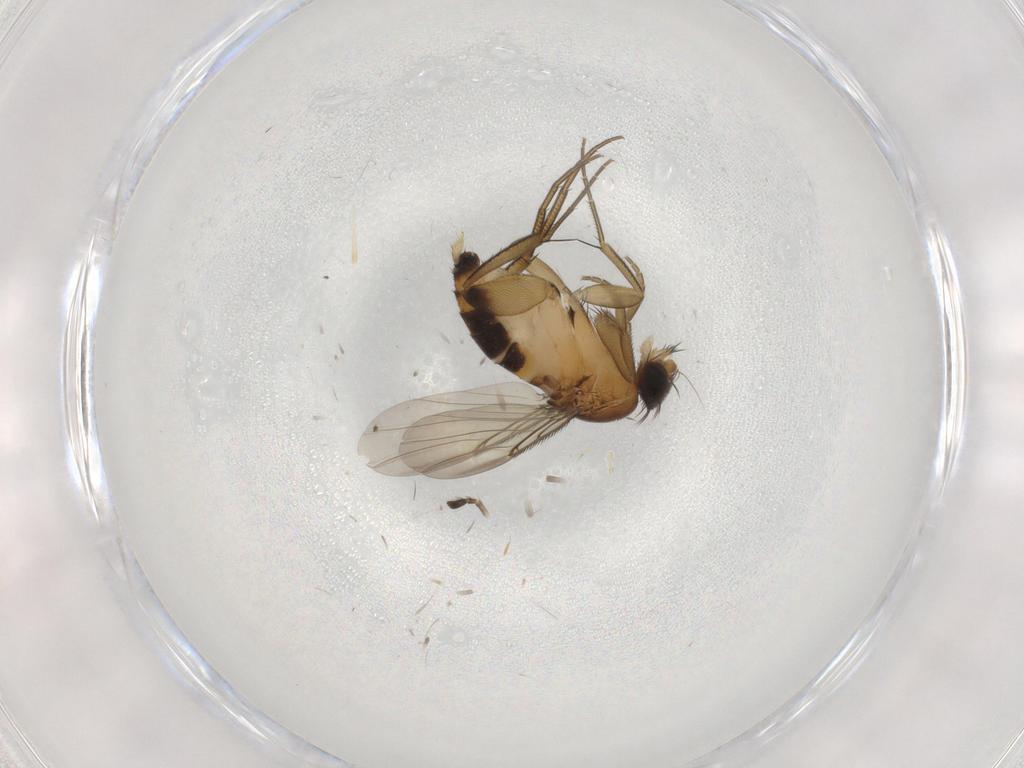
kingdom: Animalia
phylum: Arthropoda
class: Insecta
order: Diptera
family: Phoridae
